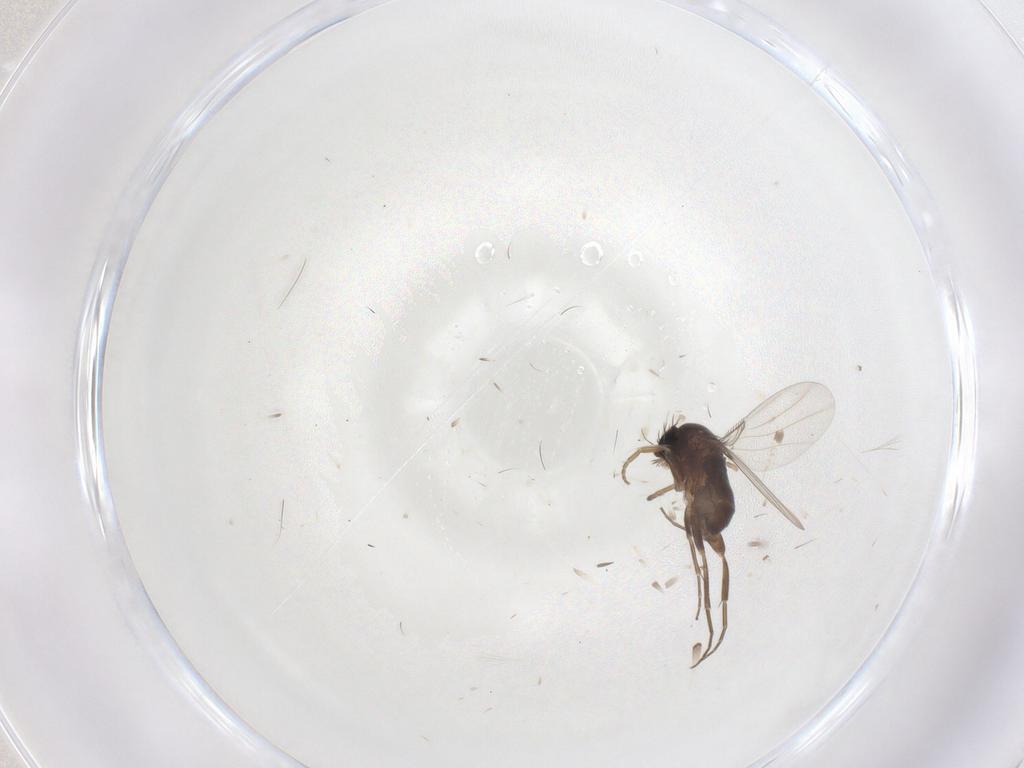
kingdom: Animalia
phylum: Arthropoda
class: Insecta
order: Diptera
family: Phoridae
